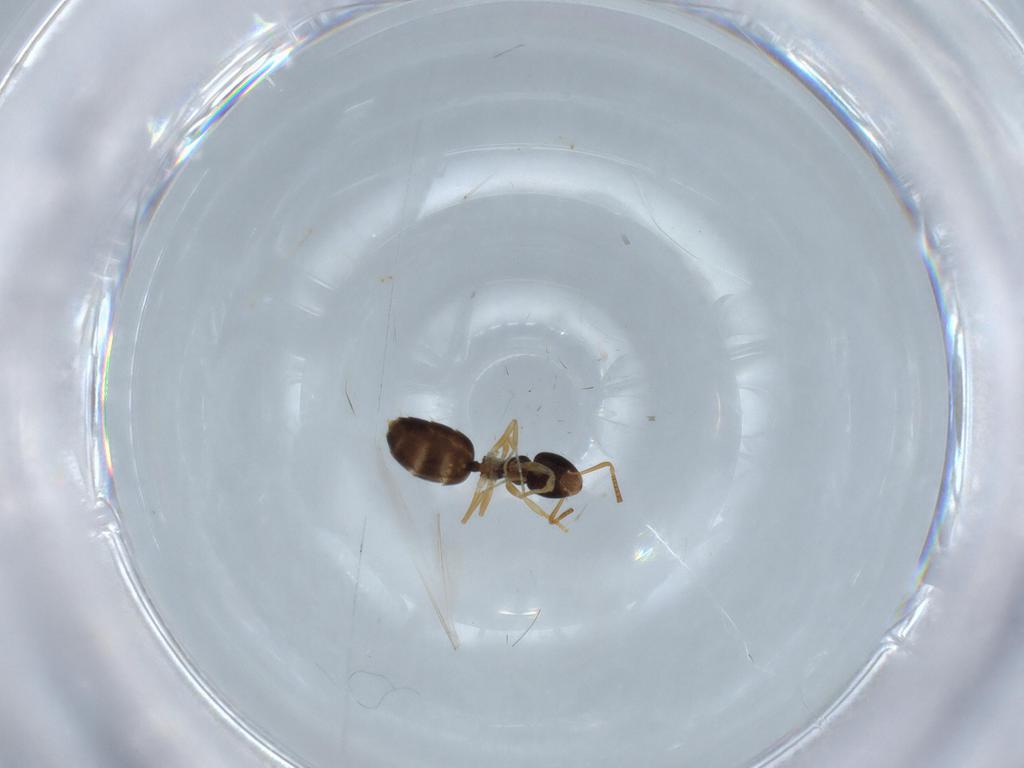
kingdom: Animalia
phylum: Arthropoda
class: Insecta
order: Hymenoptera
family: Formicidae
